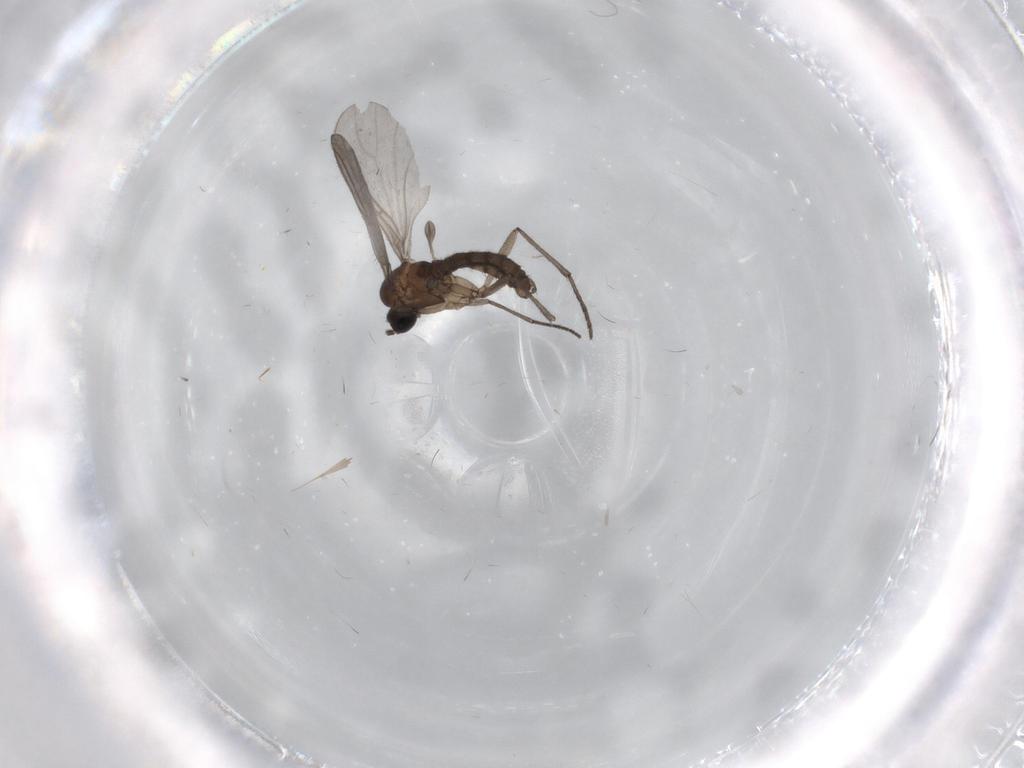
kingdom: Animalia
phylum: Arthropoda
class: Insecta
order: Diptera
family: Sciaridae
